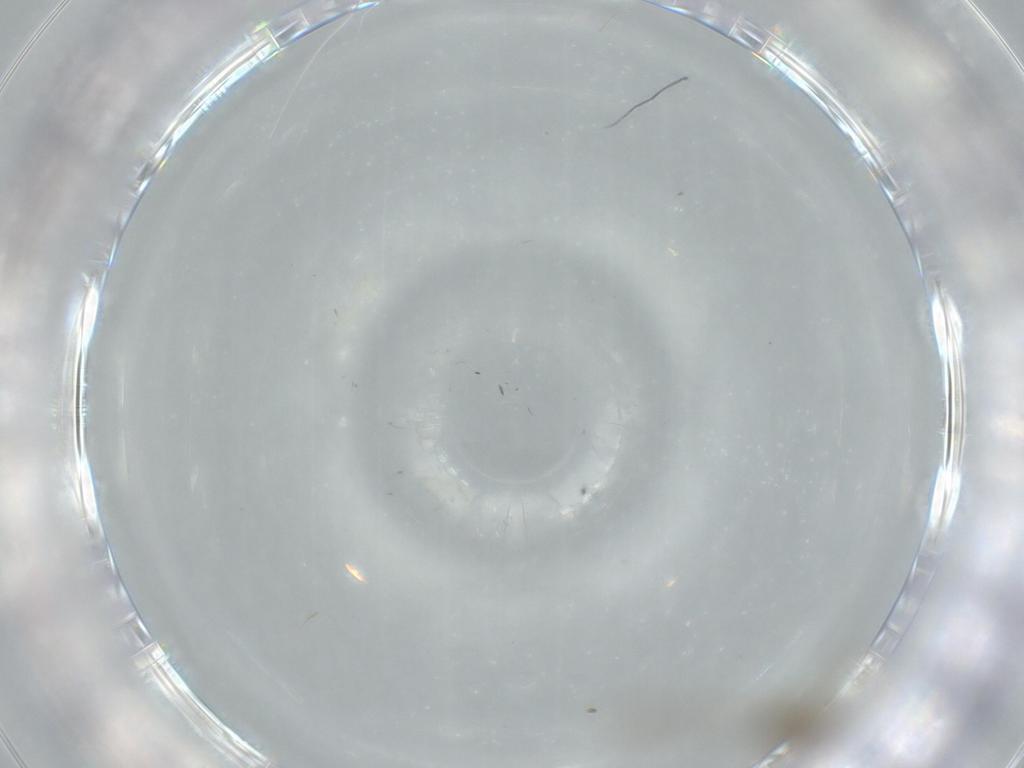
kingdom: Animalia
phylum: Arthropoda
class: Insecta
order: Diptera
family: Cecidomyiidae
